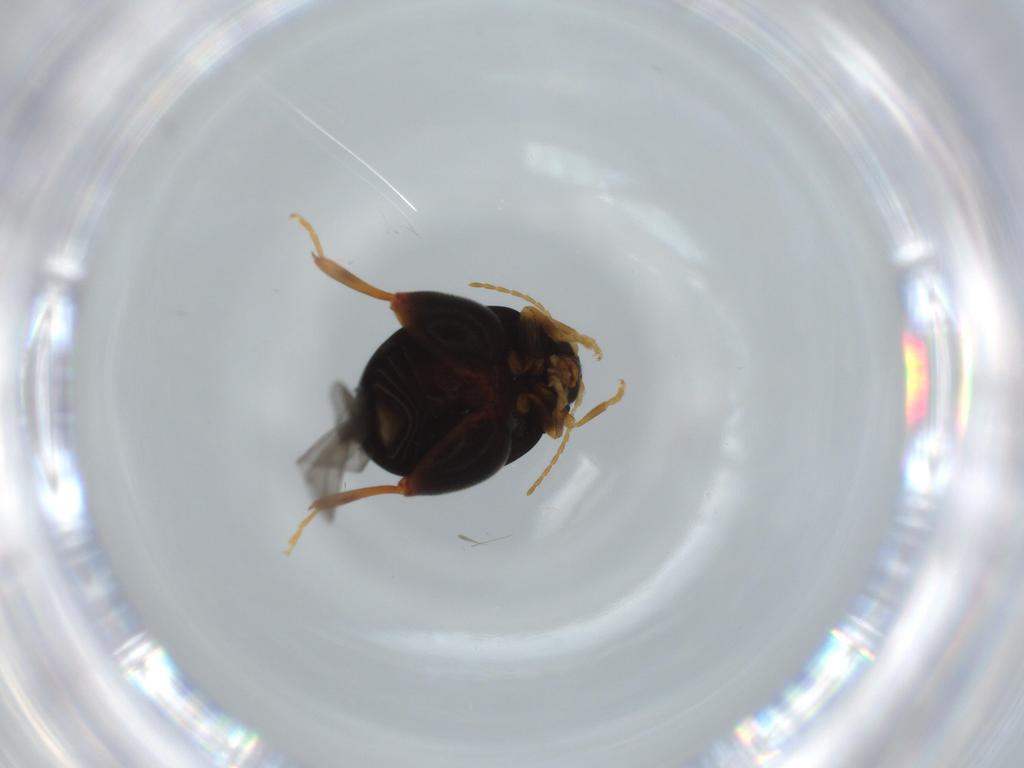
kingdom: Animalia
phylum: Arthropoda
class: Insecta
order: Coleoptera
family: Chrysomelidae
